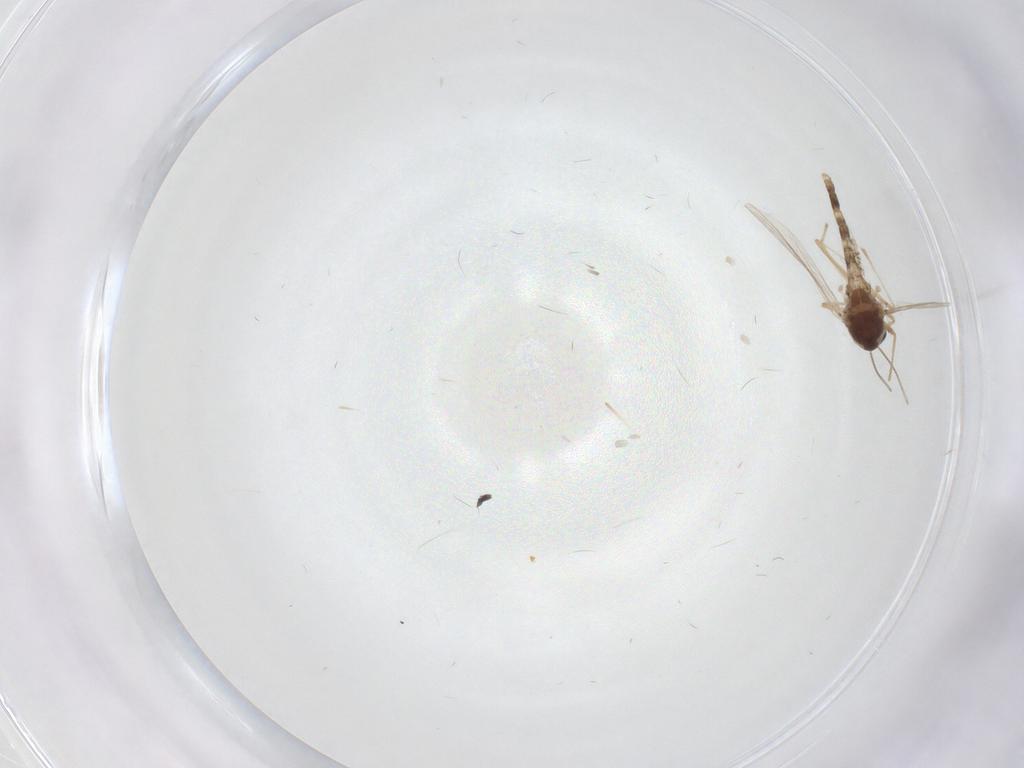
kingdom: Animalia
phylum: Arthropoda
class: Insecta
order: Diptera
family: Chironomidae
